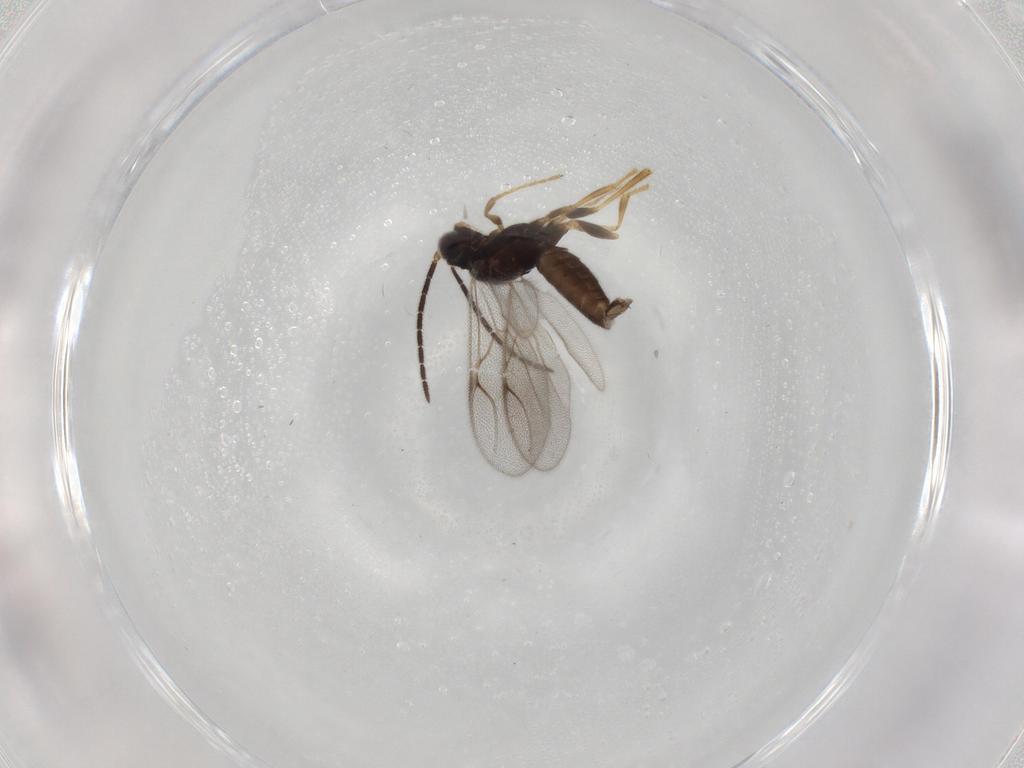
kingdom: Animalia
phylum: Arthropoda
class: Insecta
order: Hymenoptera
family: Dryinidae
